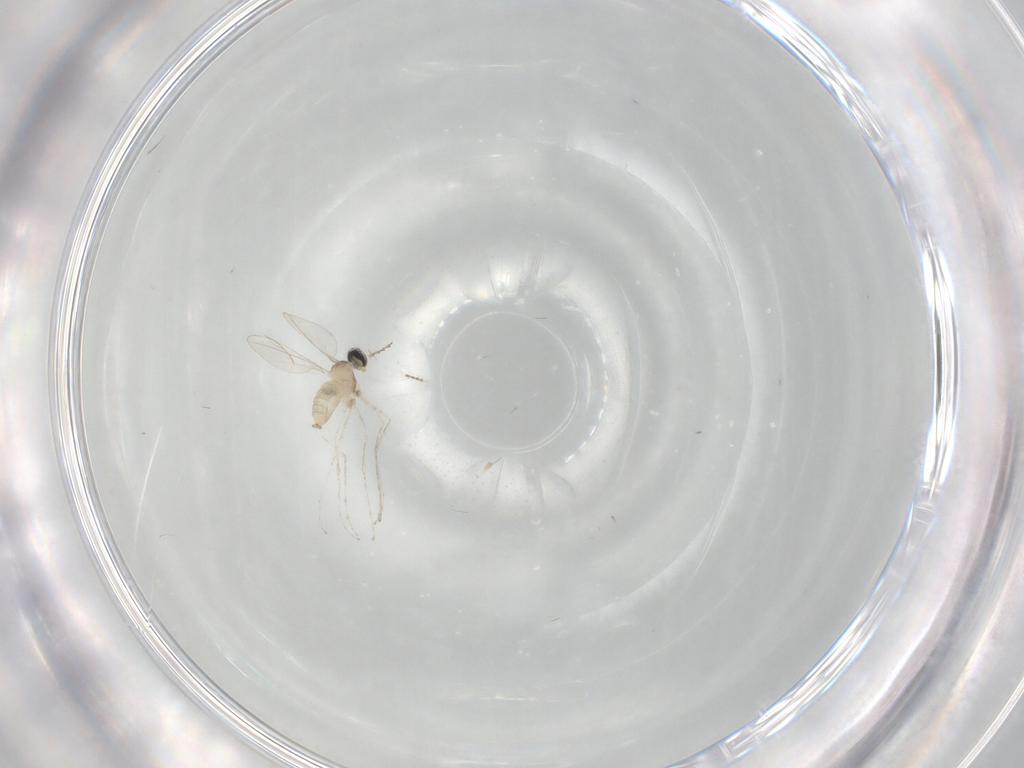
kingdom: Animalia
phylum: Arthropoda
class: Insecta
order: Diptera
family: Cecidomyiidae
